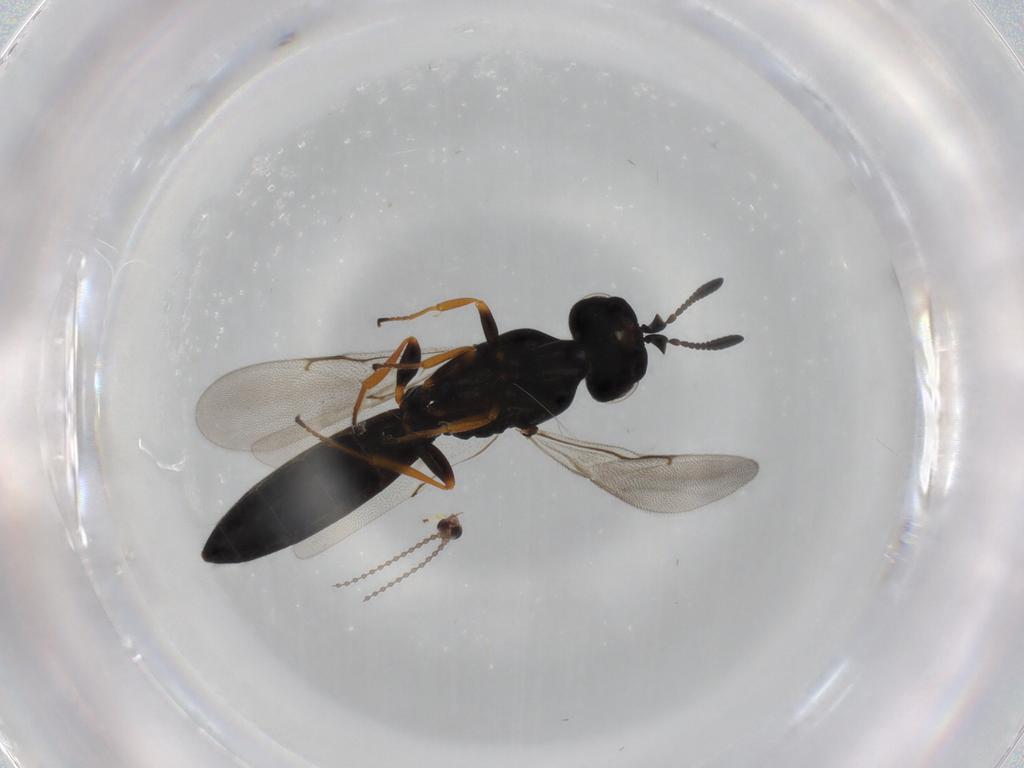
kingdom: Animalia
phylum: Arthropoda
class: Insecta
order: Hymenoptera
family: Scelionidae
